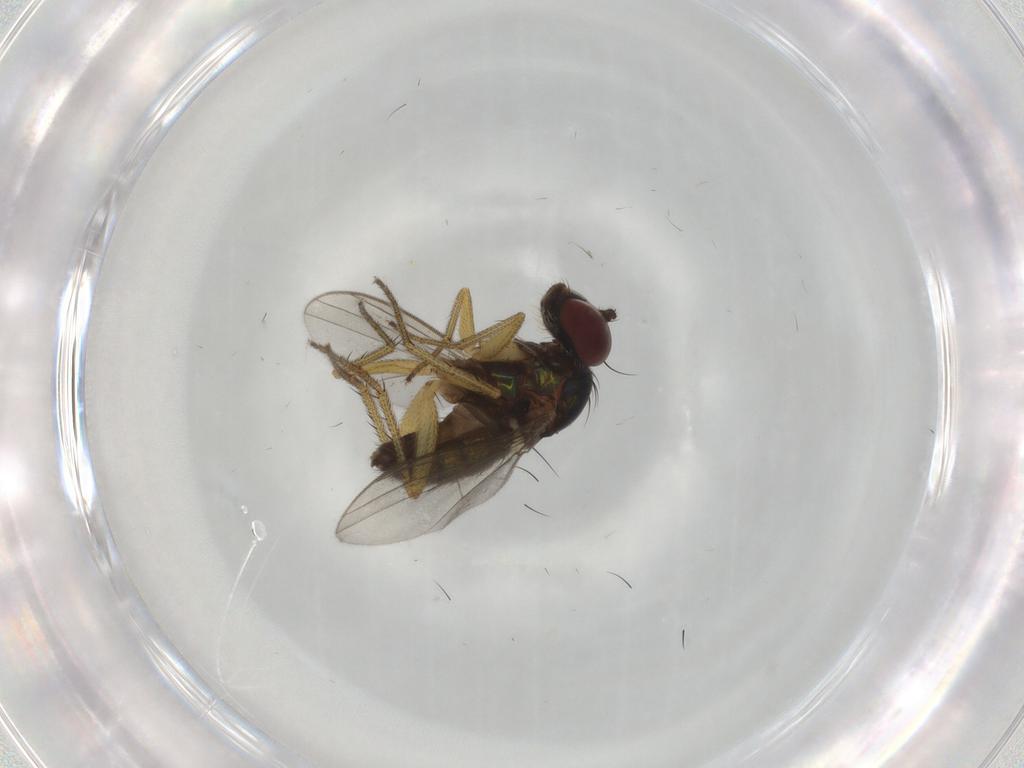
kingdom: Animalia
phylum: Arthropoda
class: Insecta
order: Diptera
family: Dolichopodidae
